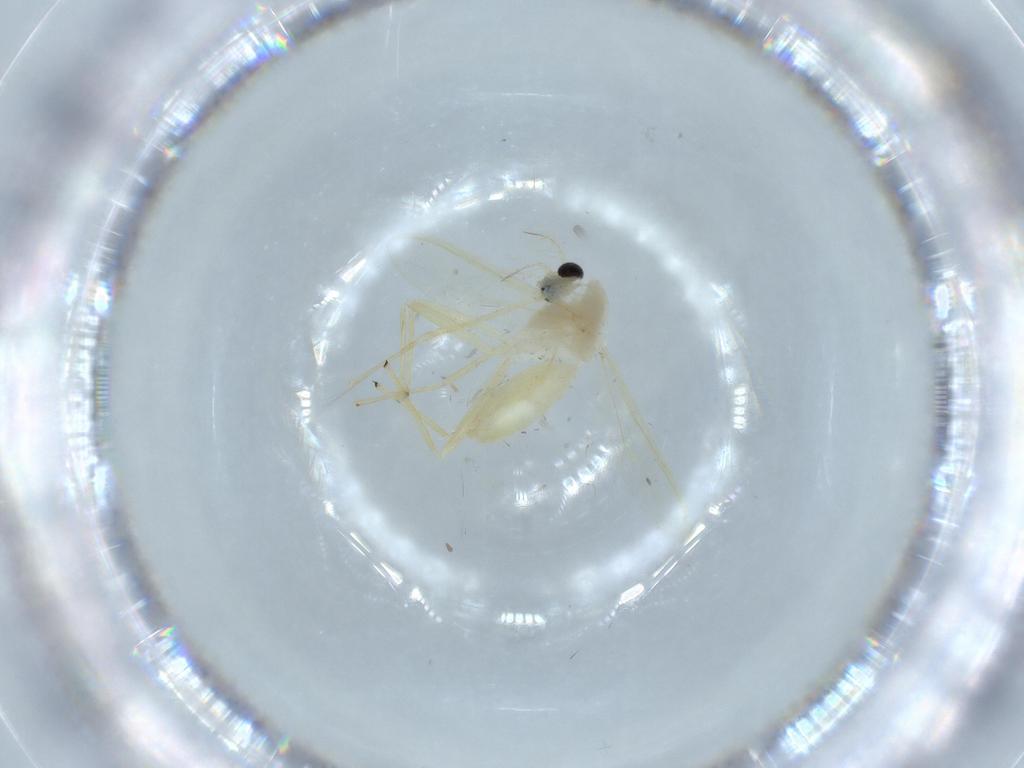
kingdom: Animalia
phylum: Arthropoda
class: Insecta
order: Diptera
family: Chironomidae
